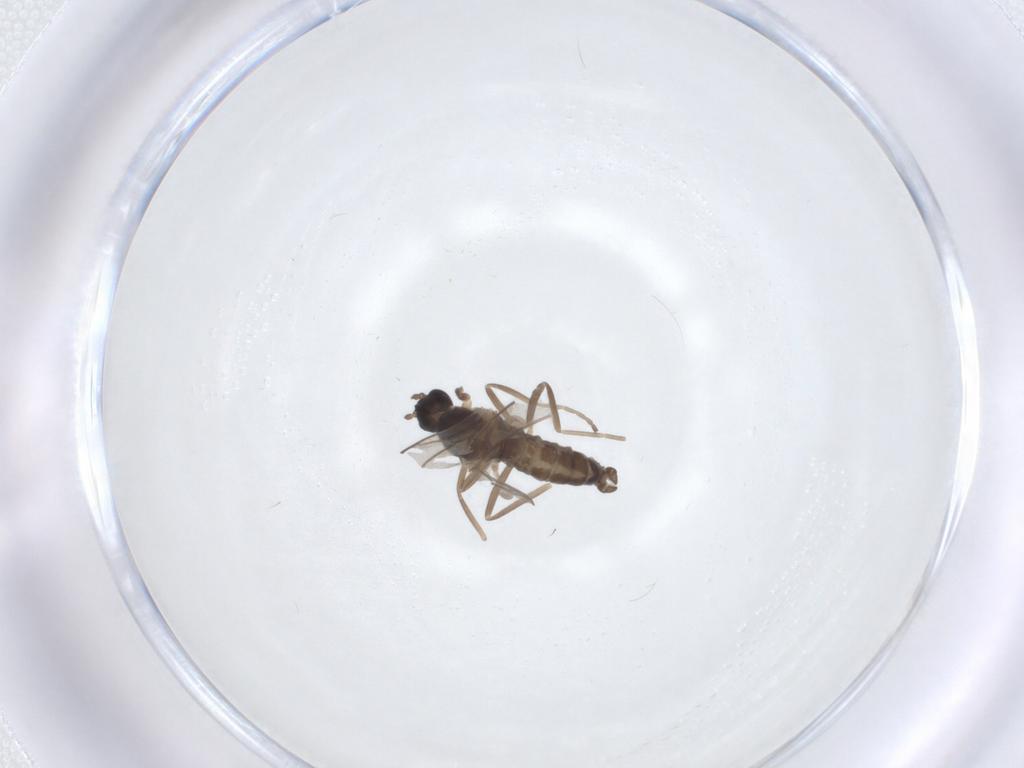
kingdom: Animalia
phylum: Arthropoda
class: Insecta
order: Diptera
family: Cecidomyiidae
